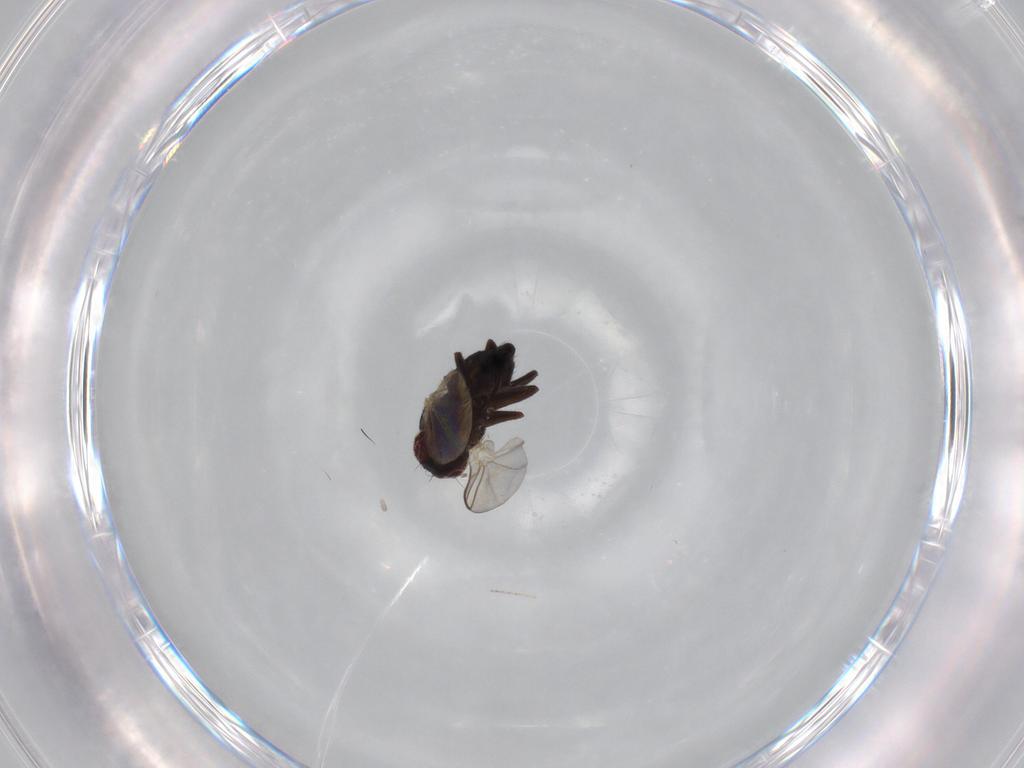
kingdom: Animalia
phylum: Arthropoda
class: Insecta
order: Diptera
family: Agromyzidae
